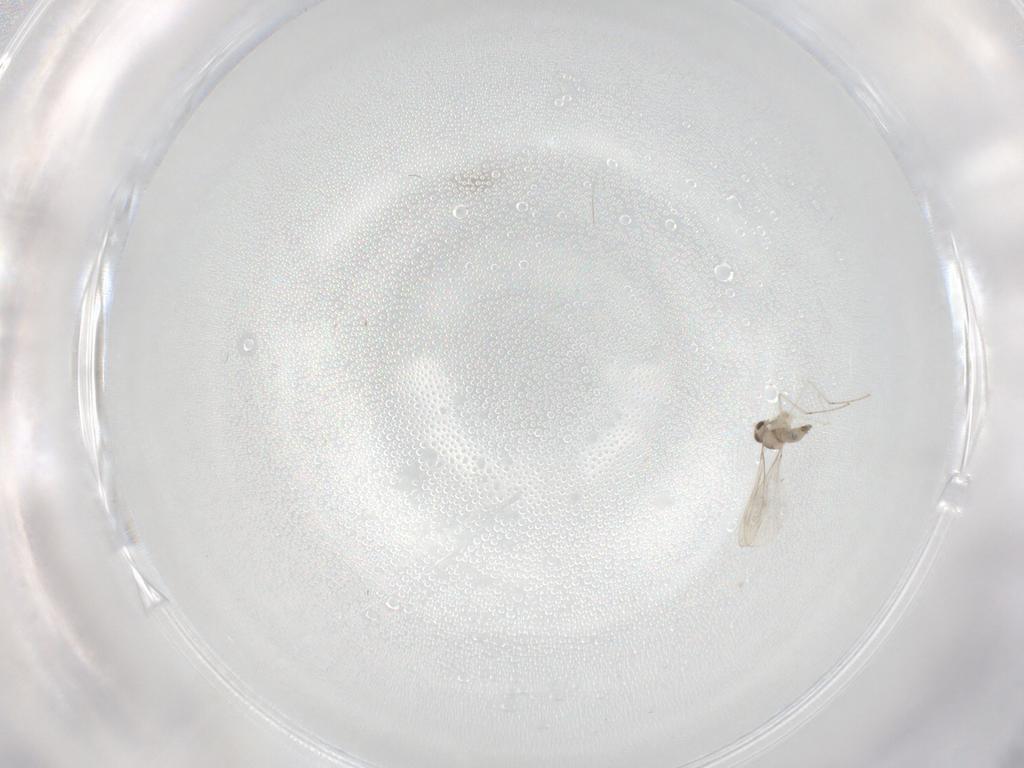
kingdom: Animalia
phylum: Arthropoda
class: Insecta
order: Diptera
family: Cecidomyiidae
